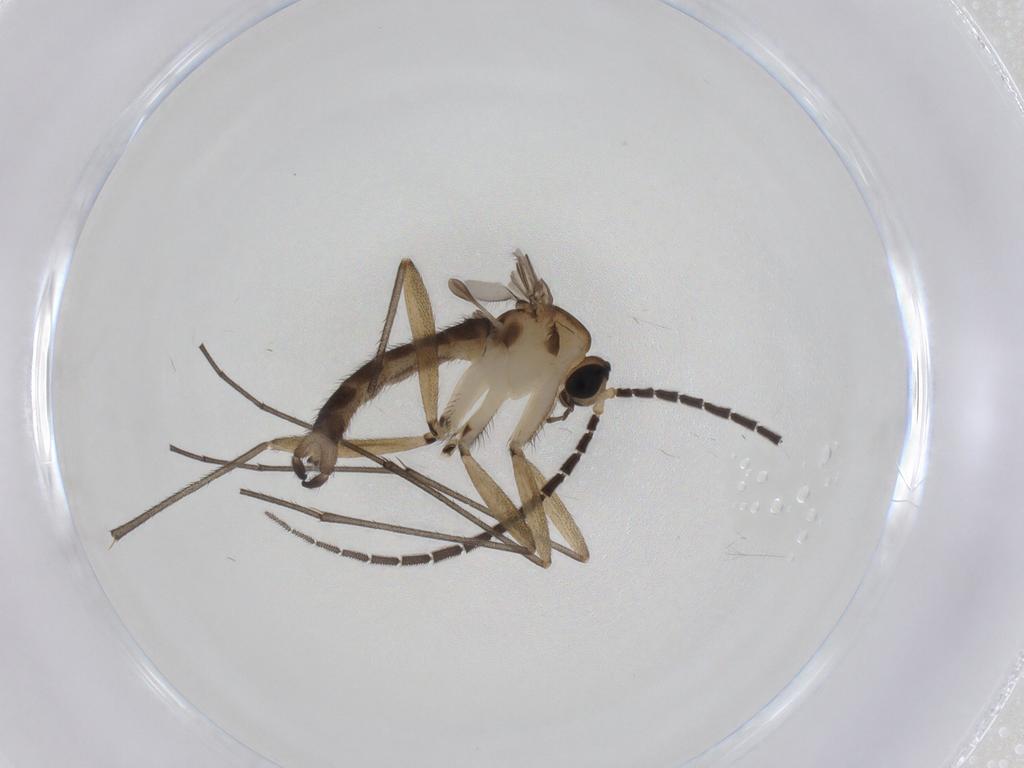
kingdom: Animalia
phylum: Arthropoda
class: Insecta
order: Diptera
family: Sciaridae
